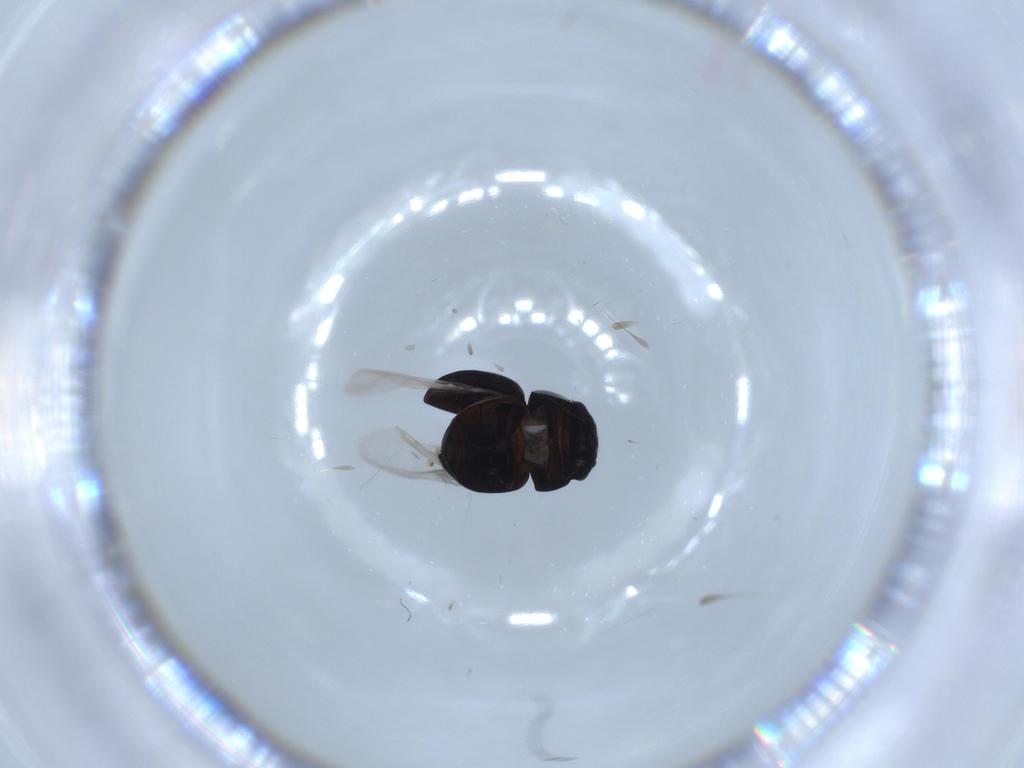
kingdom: Animalia
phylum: Arthropoda
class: Insecta
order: Coleoptera
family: Cybocephalidae
